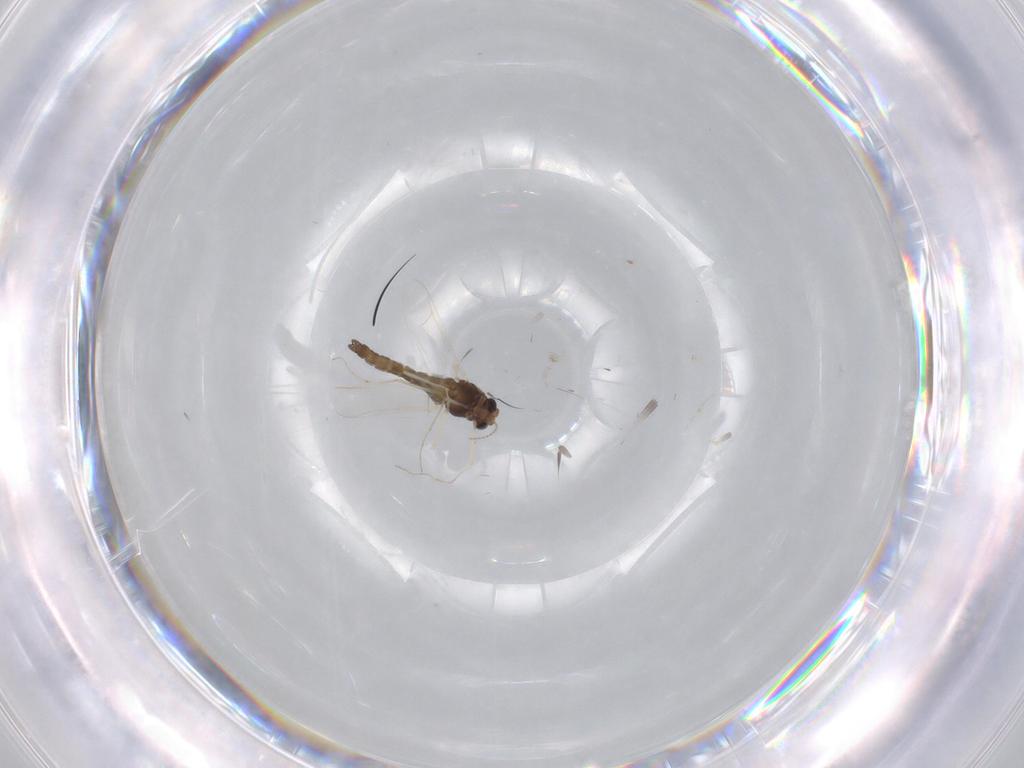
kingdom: Animalia
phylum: Arthropoda
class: Insecta
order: Diptera
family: Chironomidae
